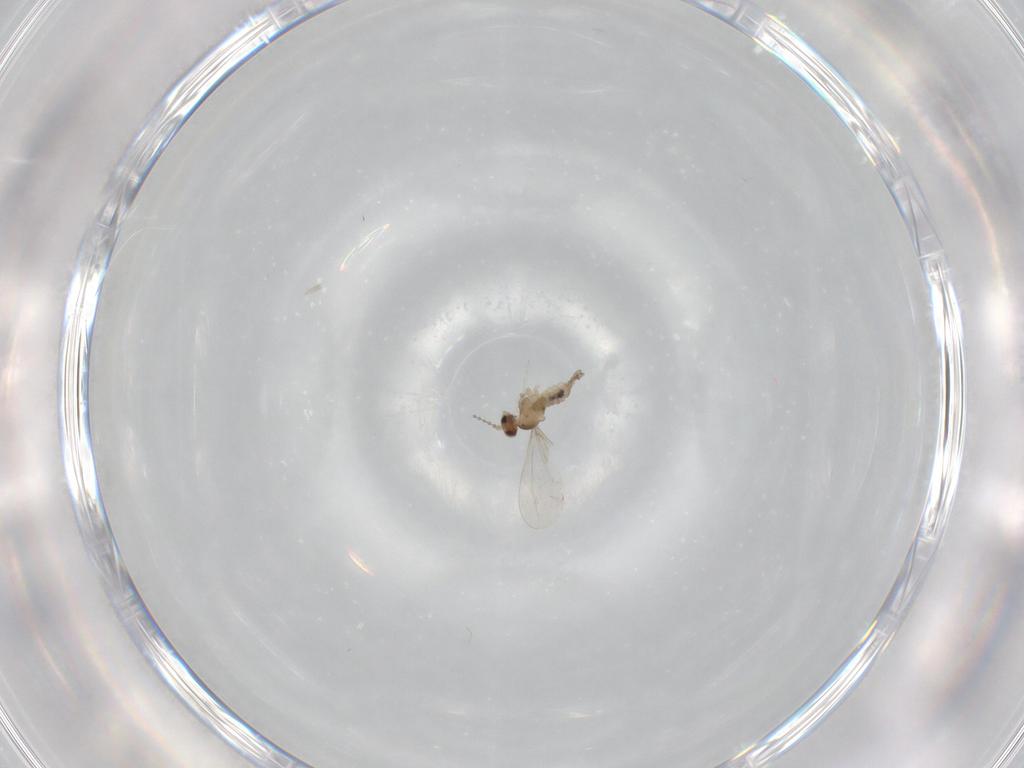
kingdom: Animalia
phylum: Arthropoda
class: Insecta
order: Diptera
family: Cecidomyiidae
